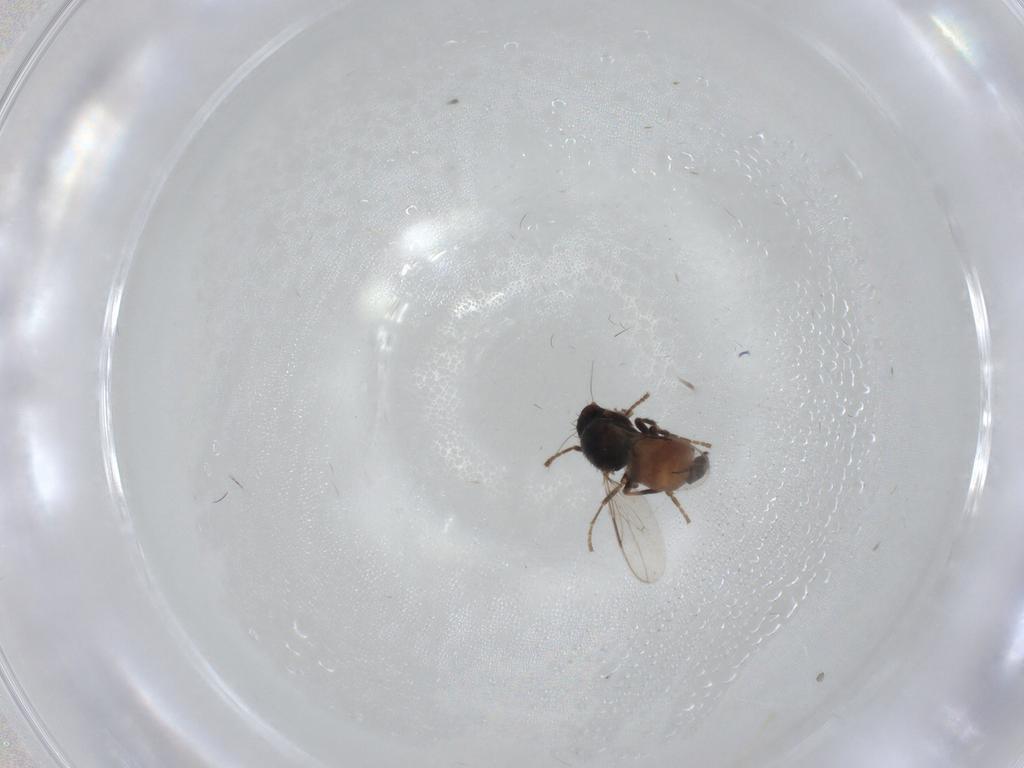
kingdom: Animalia
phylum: Arthropoda
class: Insecta
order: Diptera
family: Sphaeroceridae
